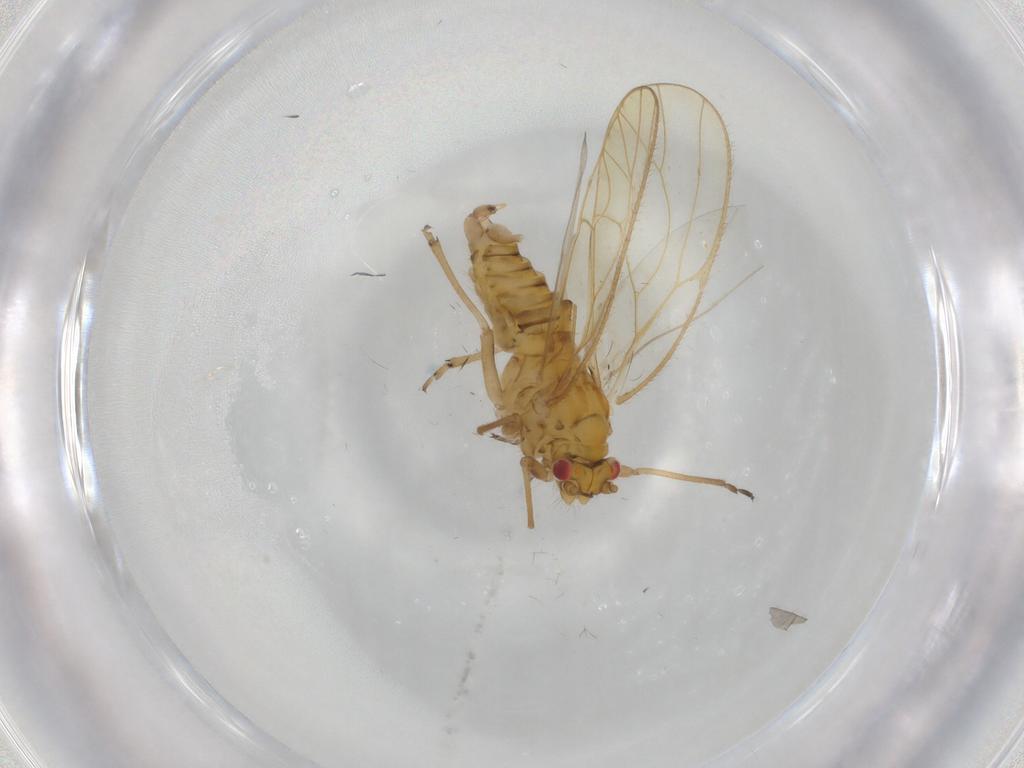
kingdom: Animalia
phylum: Arthropoda
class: Insecta
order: Hemiptera
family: Psyllidae
